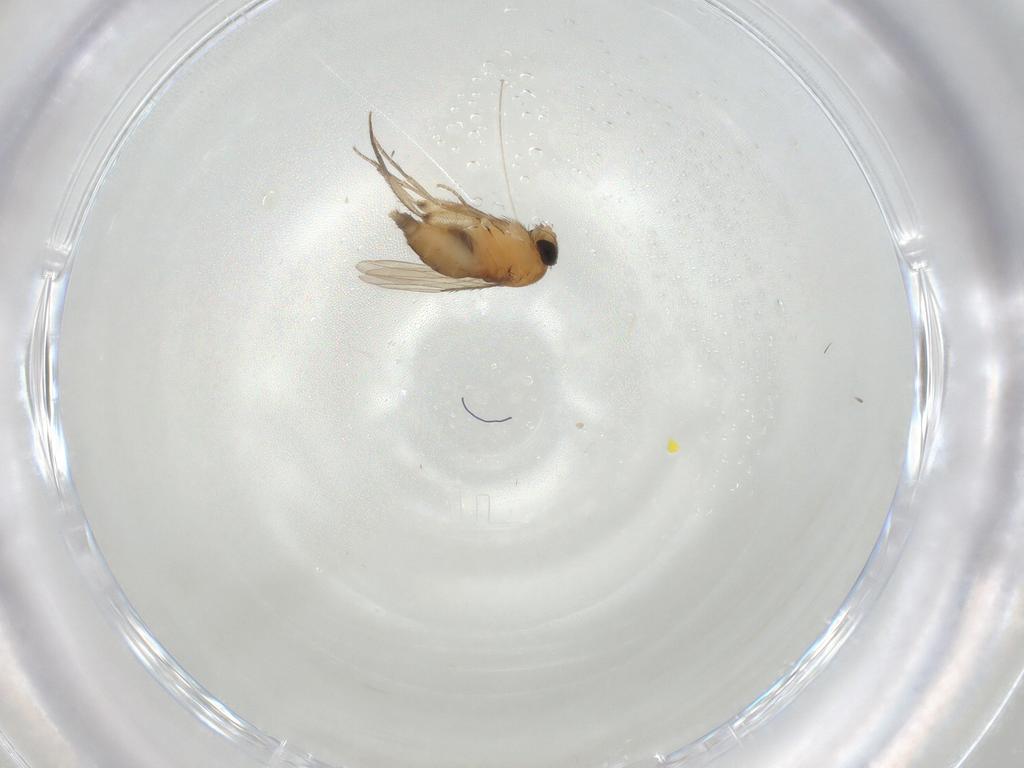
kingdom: Animalia
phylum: Arthropoda
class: Insecta
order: Diptera
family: Phoridae
